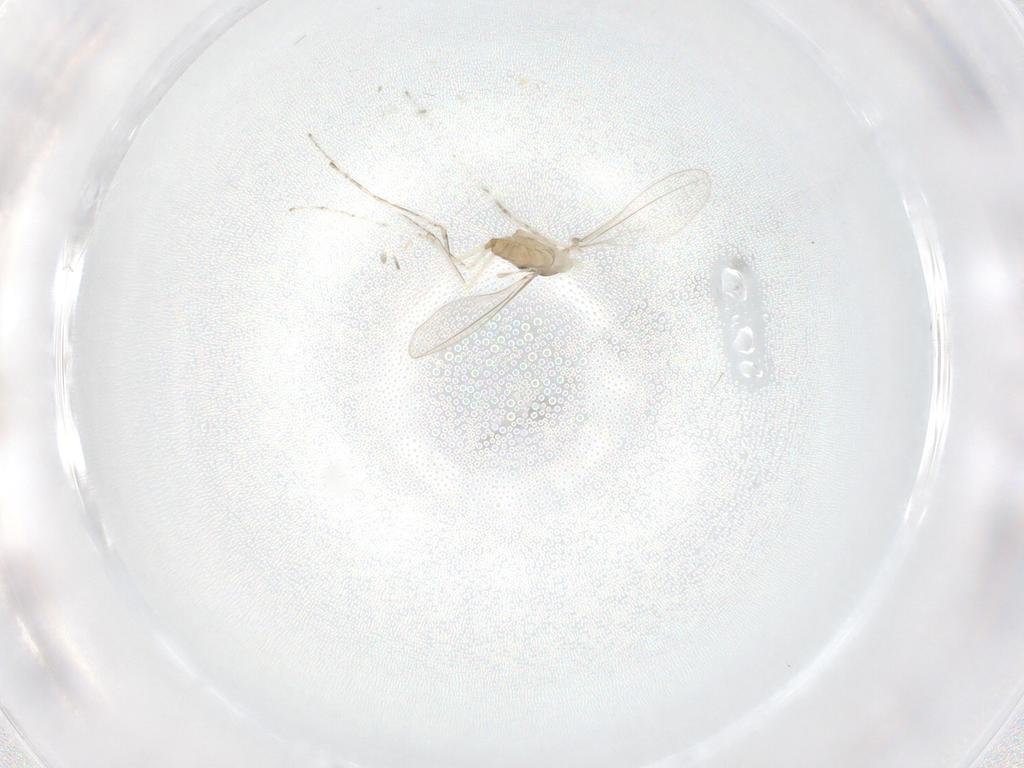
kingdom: Animalia
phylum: Arthropoda
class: Insecta
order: Diptera
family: Cecidomyiidae
